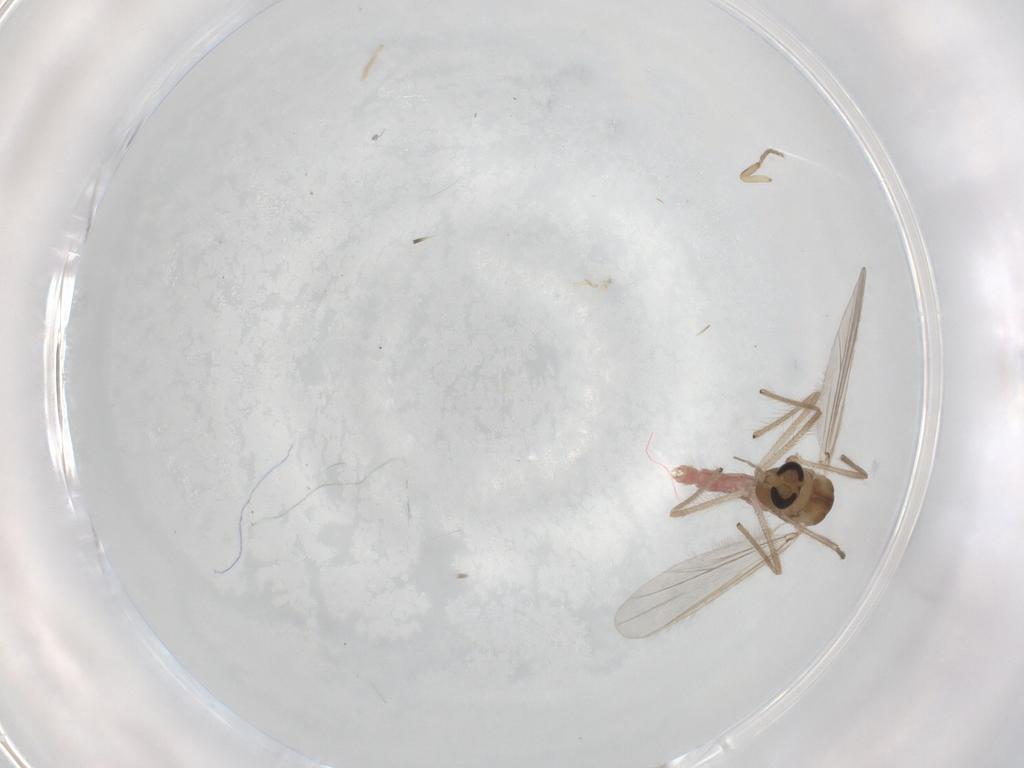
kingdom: Animalia
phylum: Arthropoda
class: Insecta
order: Diptera
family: Chironomidae
